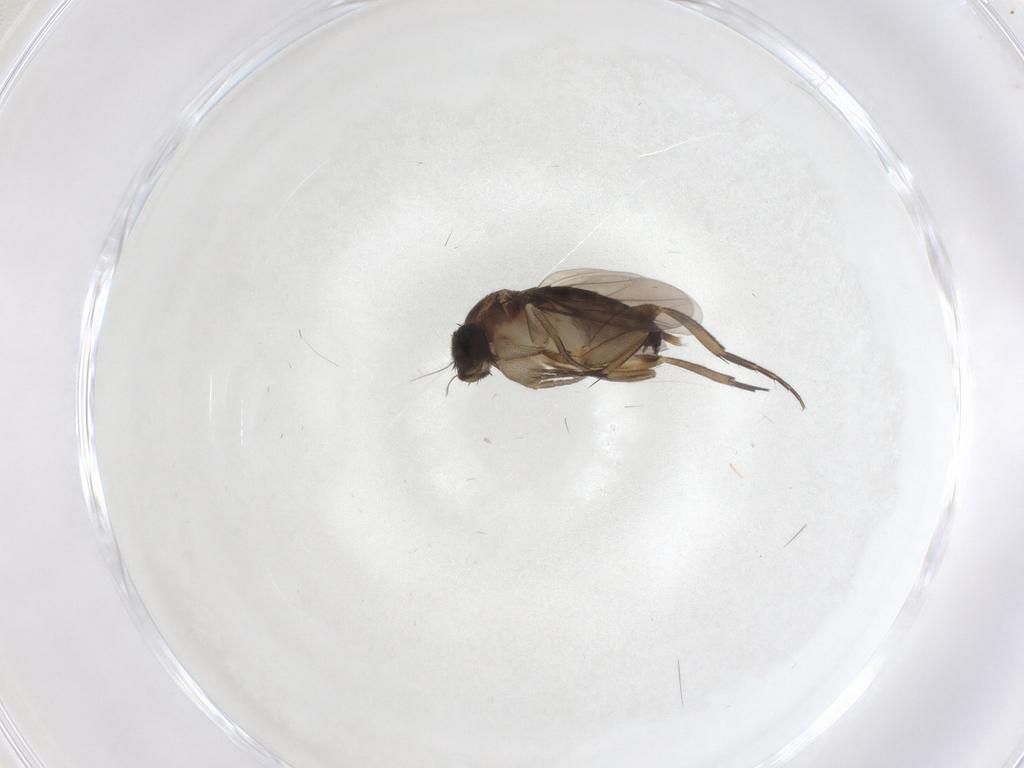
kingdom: Animalia
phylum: Arthropoda
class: Insecta
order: Diptera
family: Phoridae
